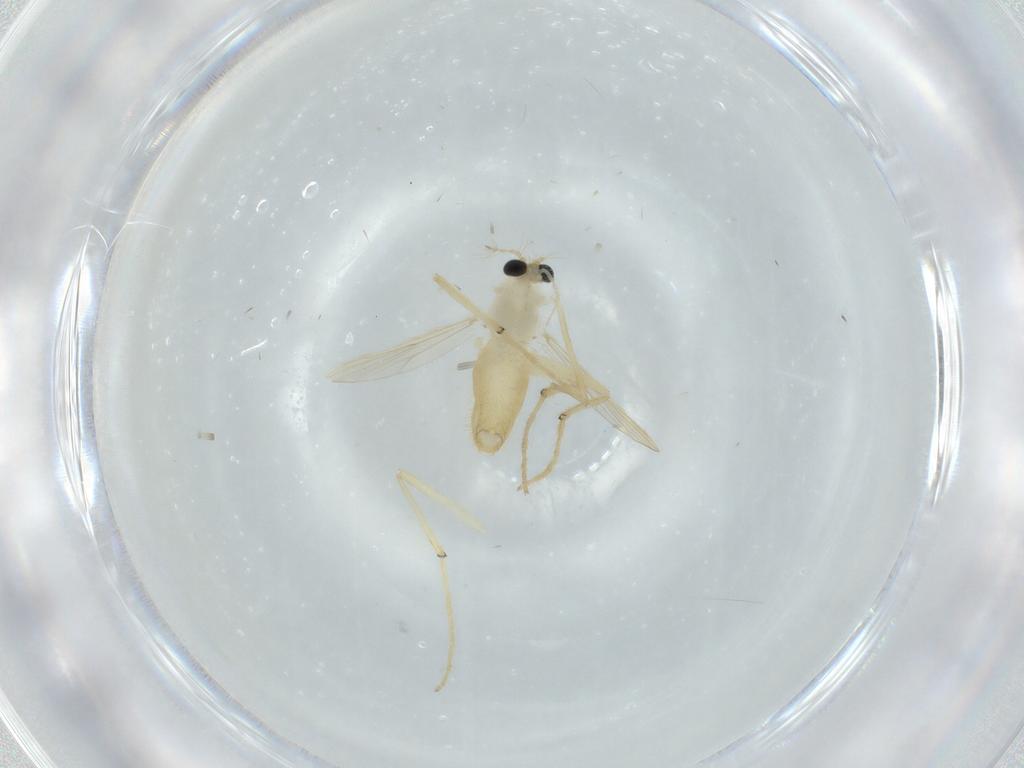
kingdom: Animalia
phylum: Arthropoda
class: Insecta
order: Diptera
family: Chironomidae
